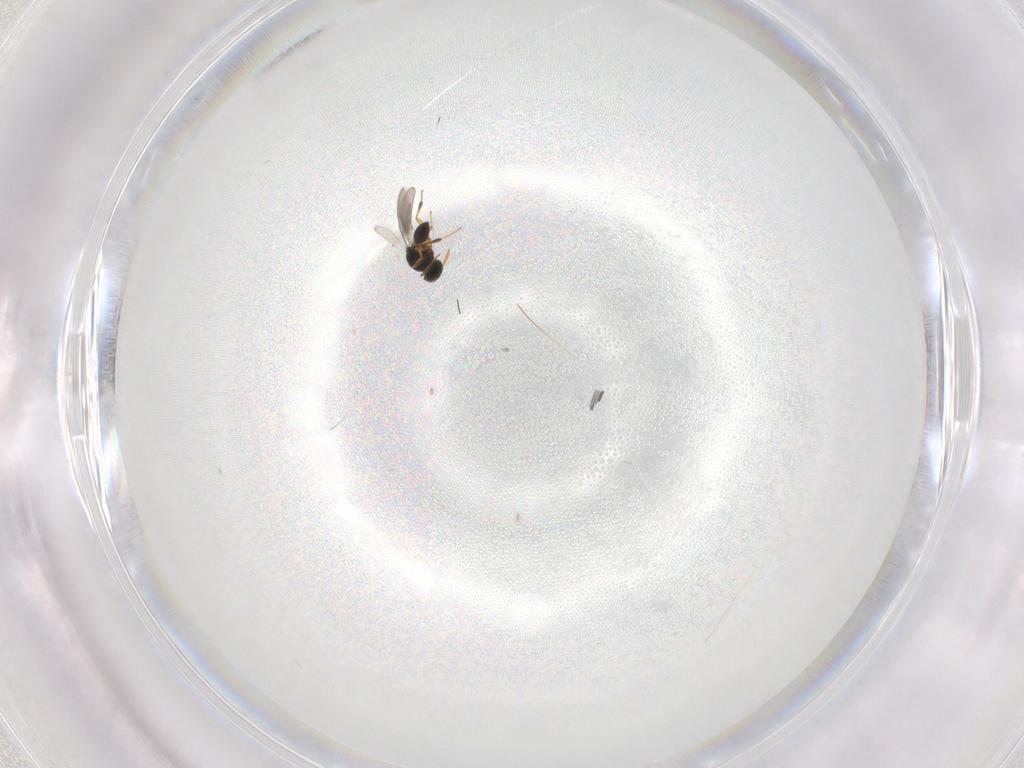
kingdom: Animalia
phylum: Arthropoda
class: Insecta
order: Hymenoptera
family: Platygastridae
